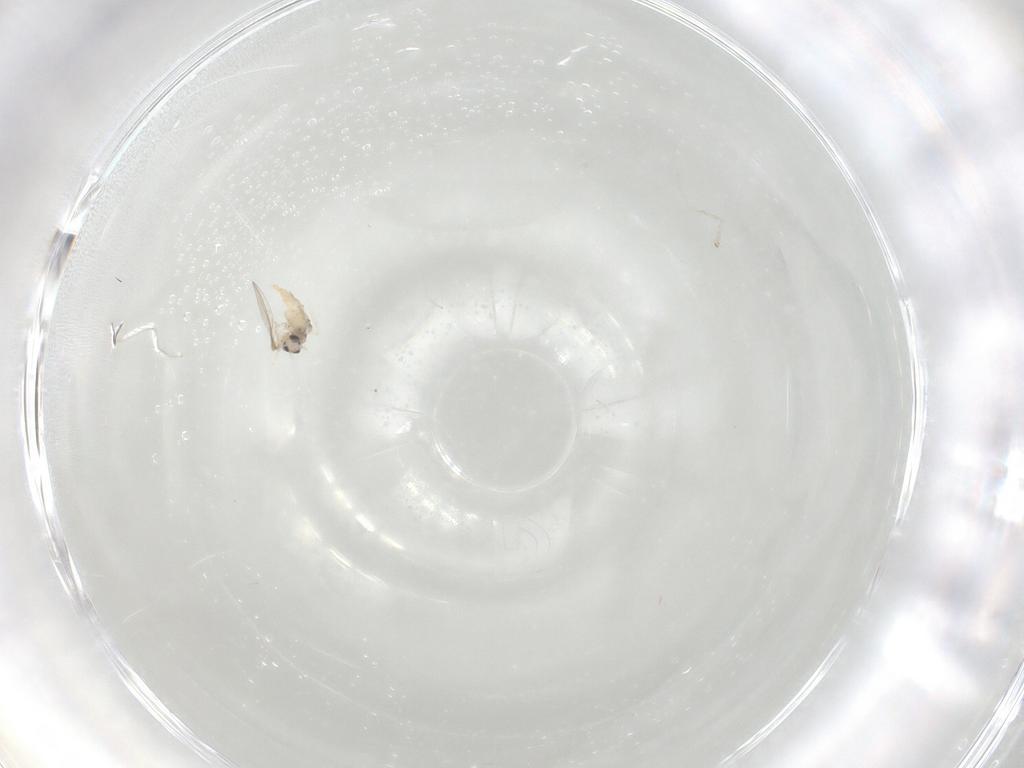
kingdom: Animalia
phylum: Arthropoda
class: Insecta
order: Diptera
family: Cecidomyiidae
